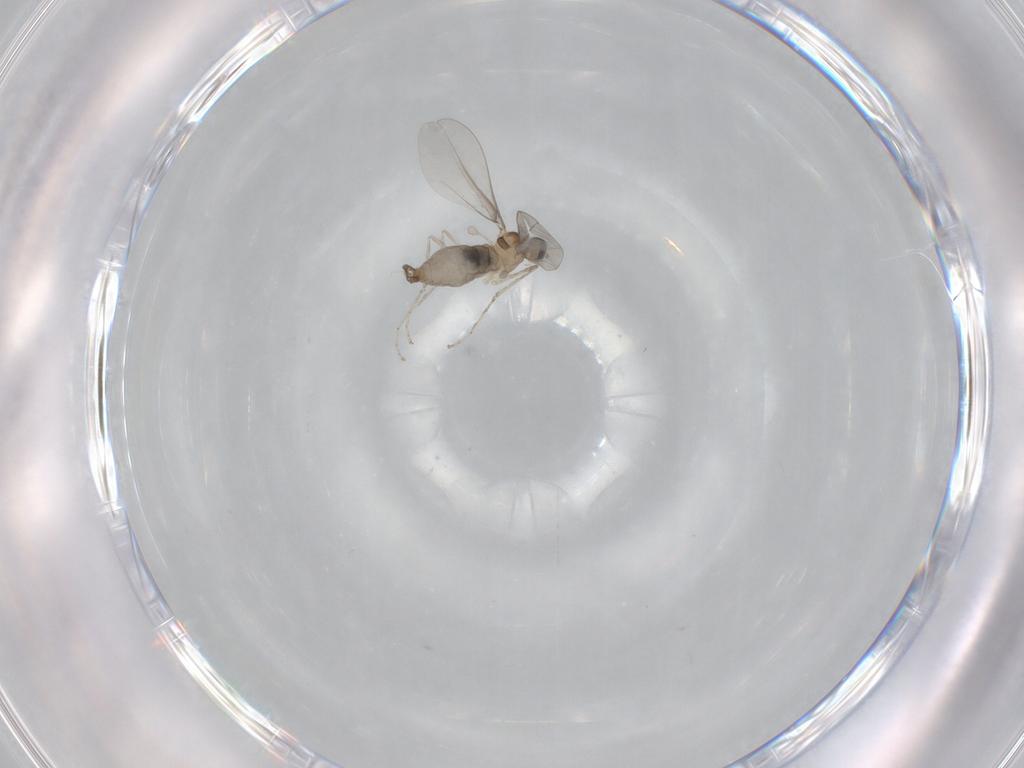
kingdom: Animalia
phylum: Arthropoda
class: Insecta
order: Diptera
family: Cecidomyiidae
